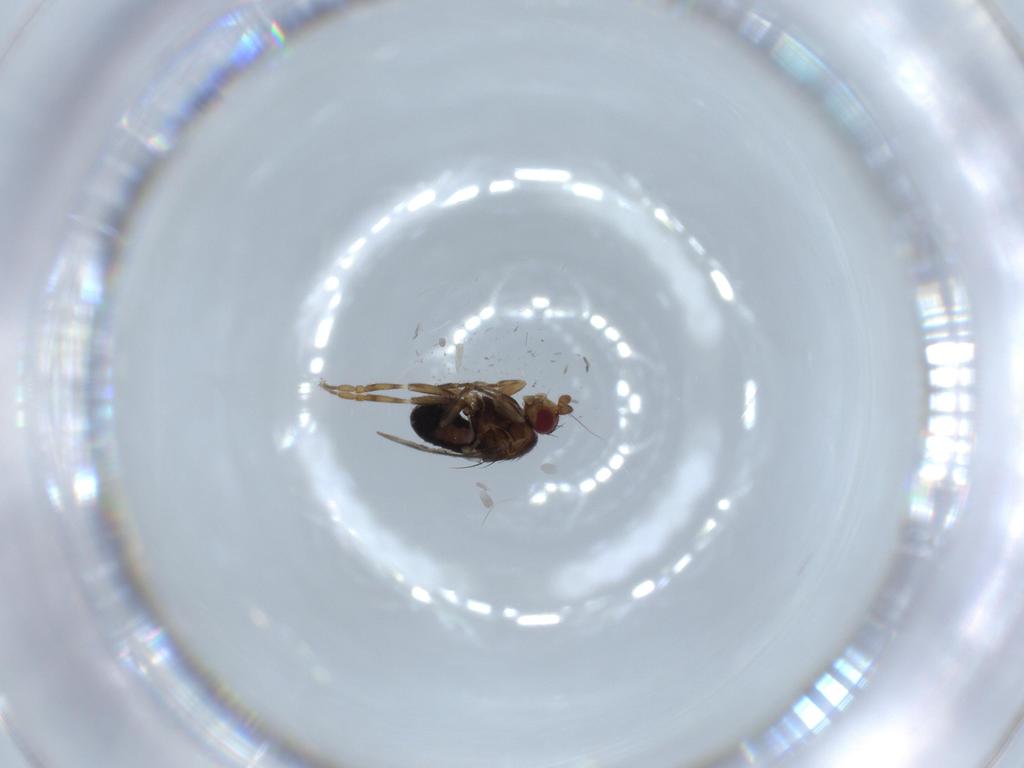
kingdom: Animalia
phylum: Arthropoda
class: Insecta
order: Diptera
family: Sphaeroceridae
